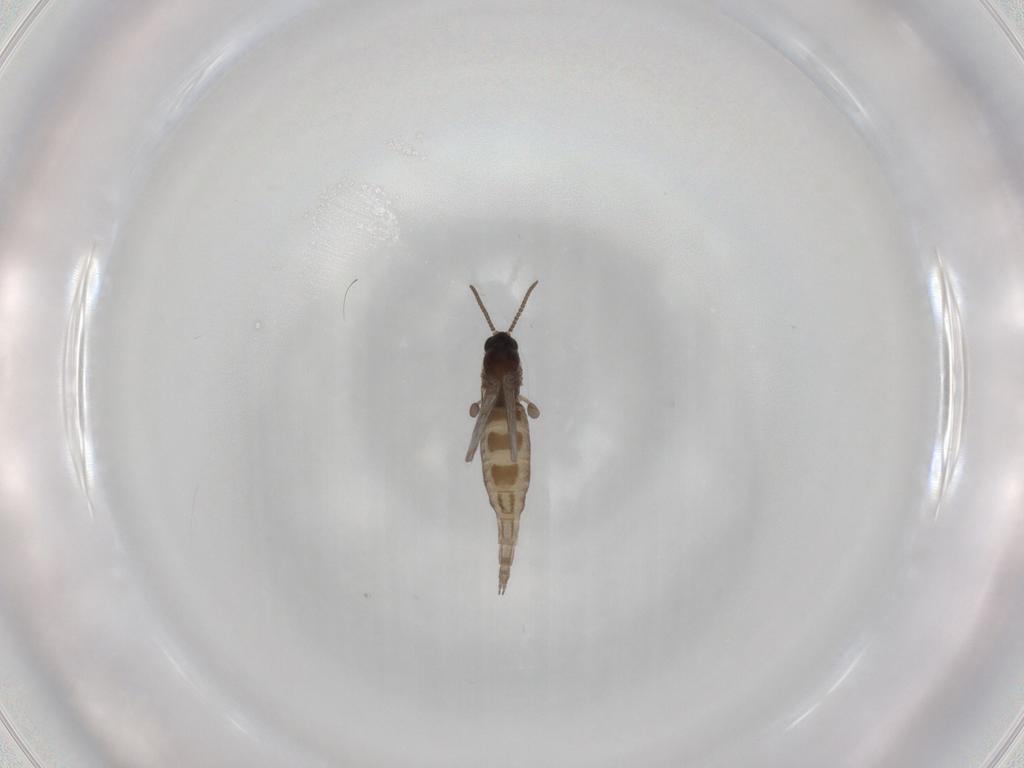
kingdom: Animalia
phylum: Arthropoda
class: Insecta
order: Diptera
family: Sciaridae
